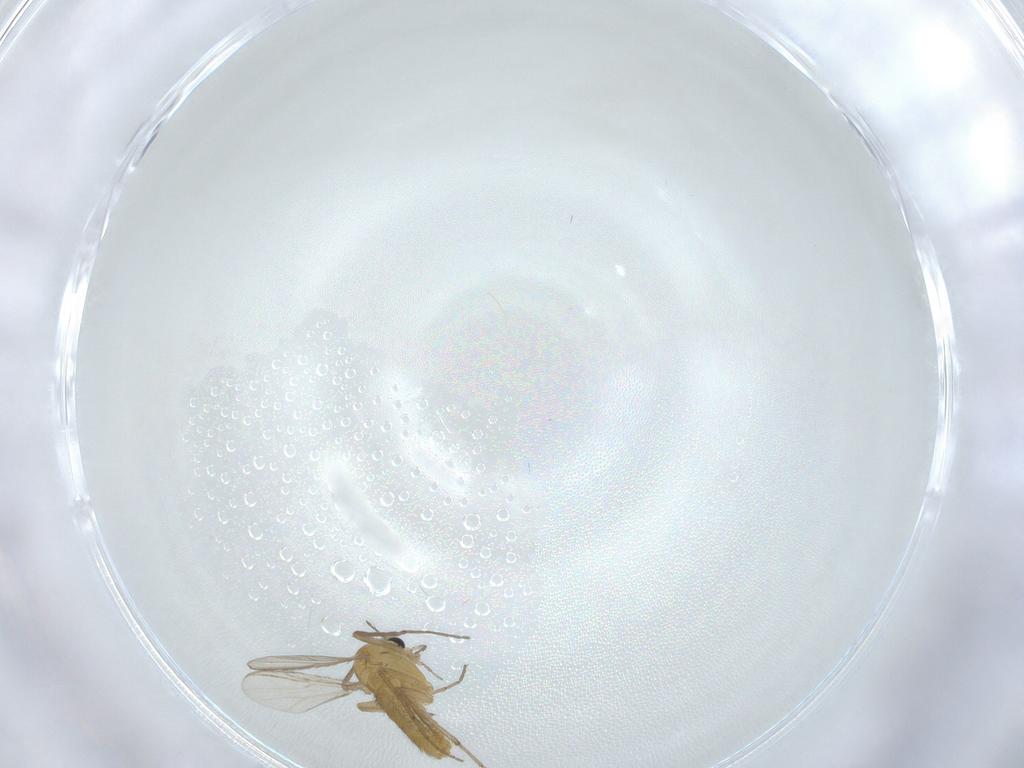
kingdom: Animalia
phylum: Arthropoda
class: Insecta
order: Diptera
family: Chironomidae
